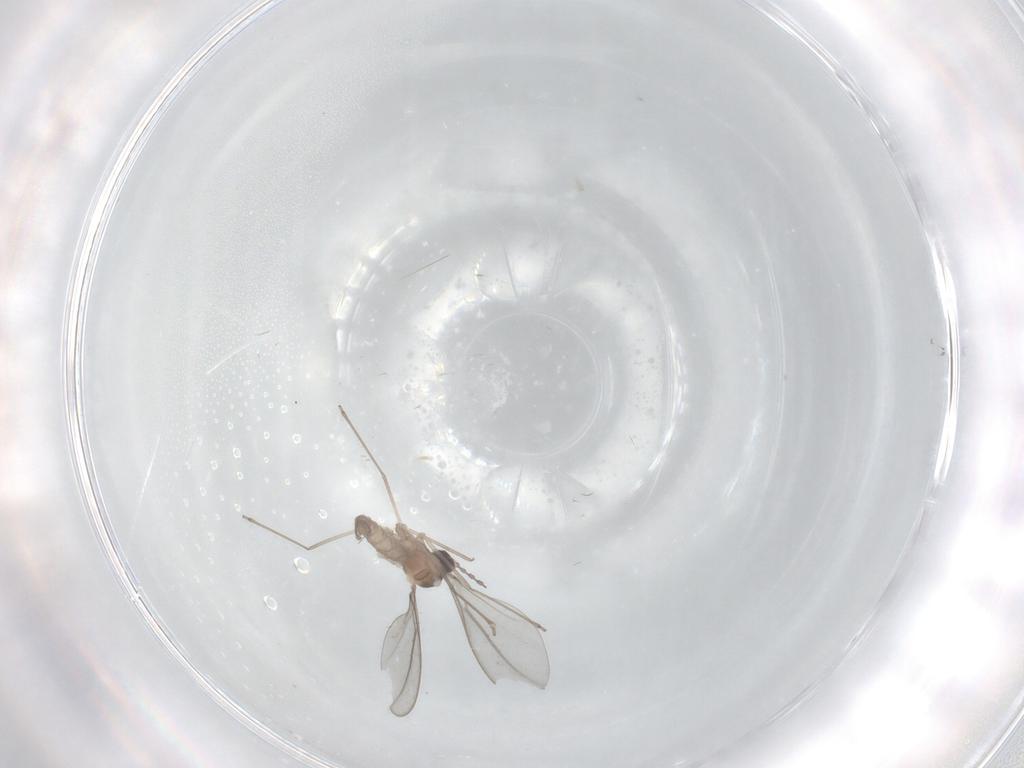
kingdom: Animalia
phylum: Arthropoda
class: Insecta
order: Diptera
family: Cecidomyiidae
